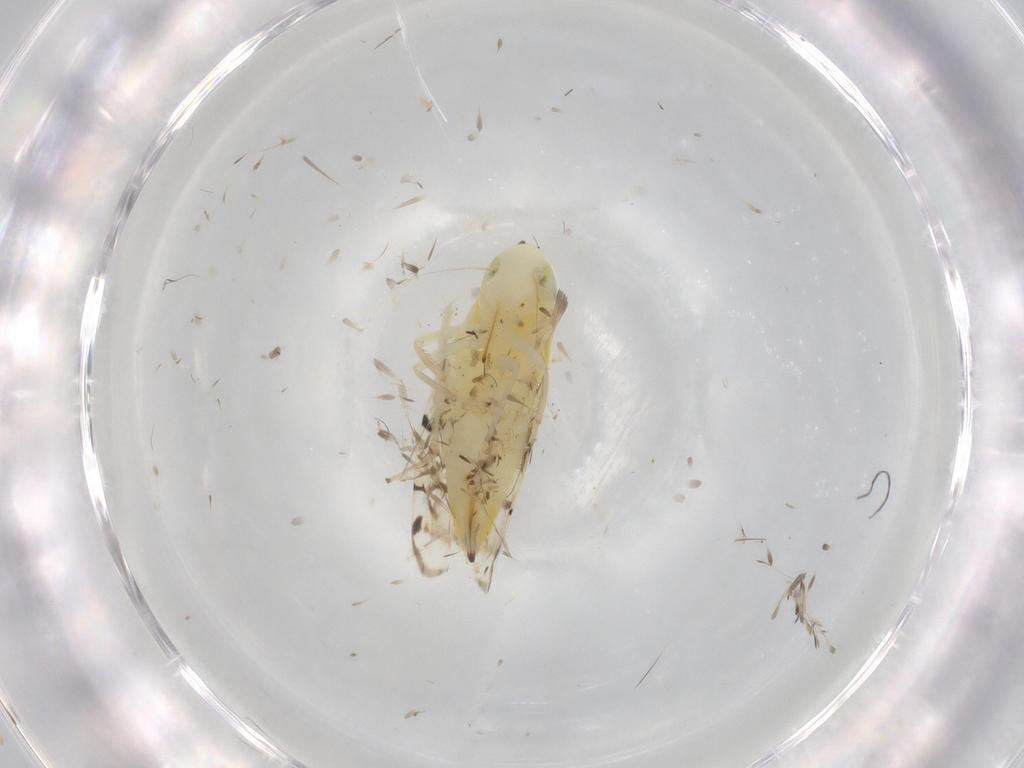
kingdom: Animalia
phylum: Arthropoda
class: Insecta
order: Hemiptera
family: Cicadellidae
